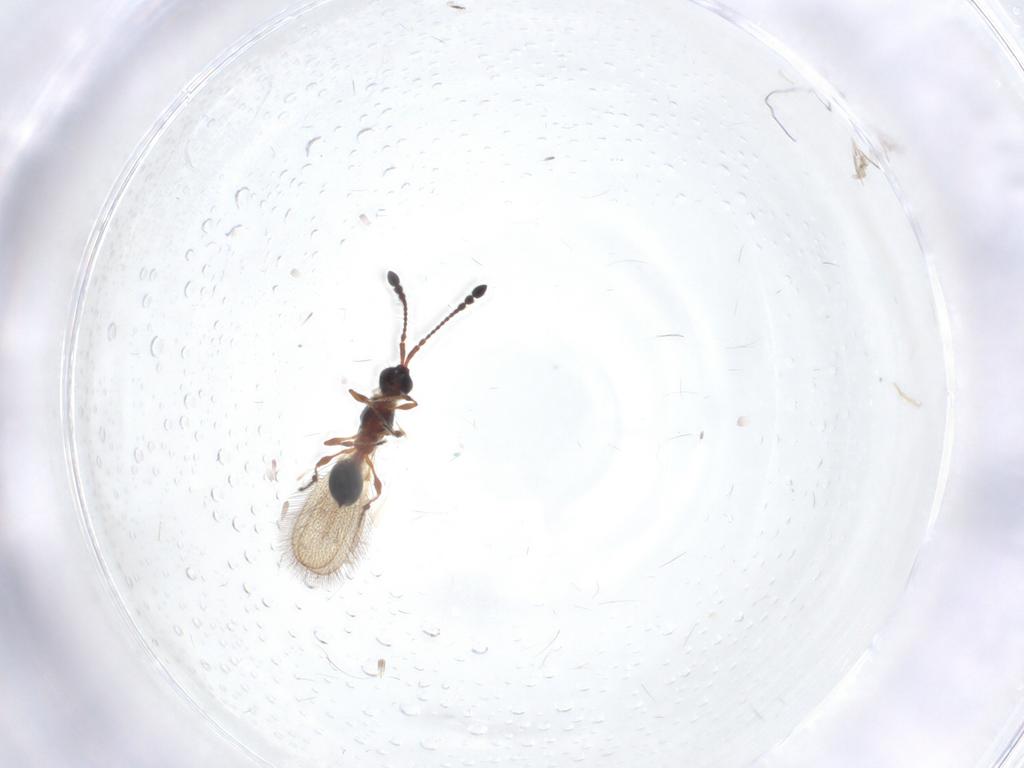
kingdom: Animalia
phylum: Arthropoda
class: Insecta
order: Hymenoptera
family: Diapriidae
